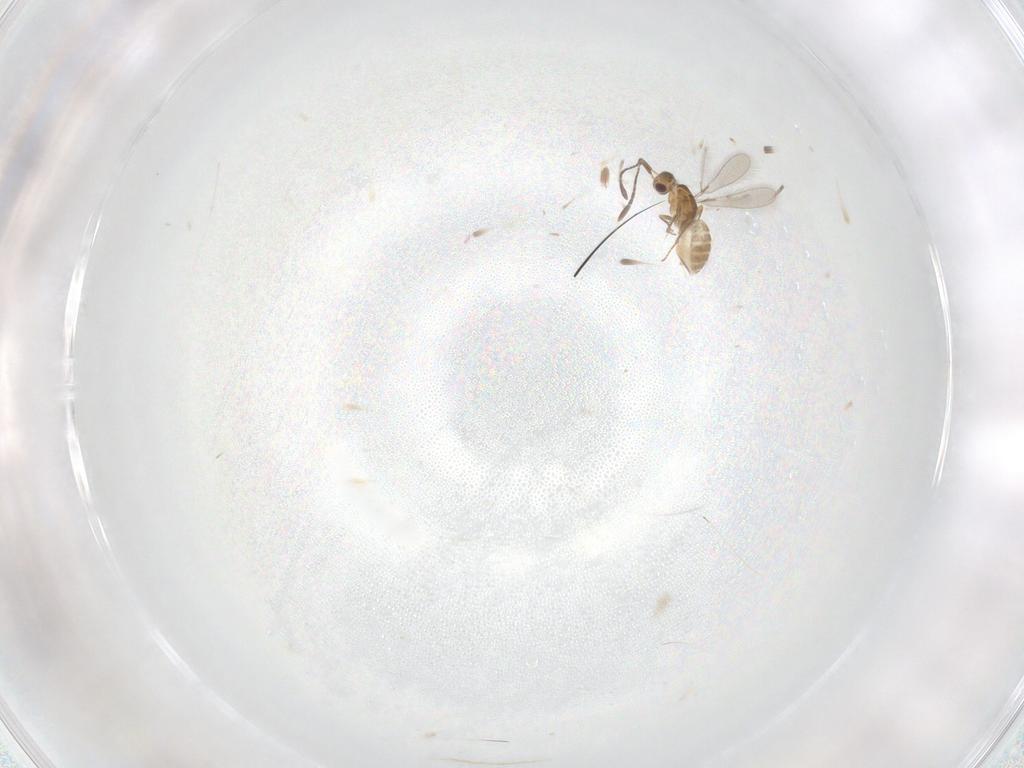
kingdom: Animalia
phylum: Arthropoda
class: Insecta
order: Hymenoptera
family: Mymaridae
